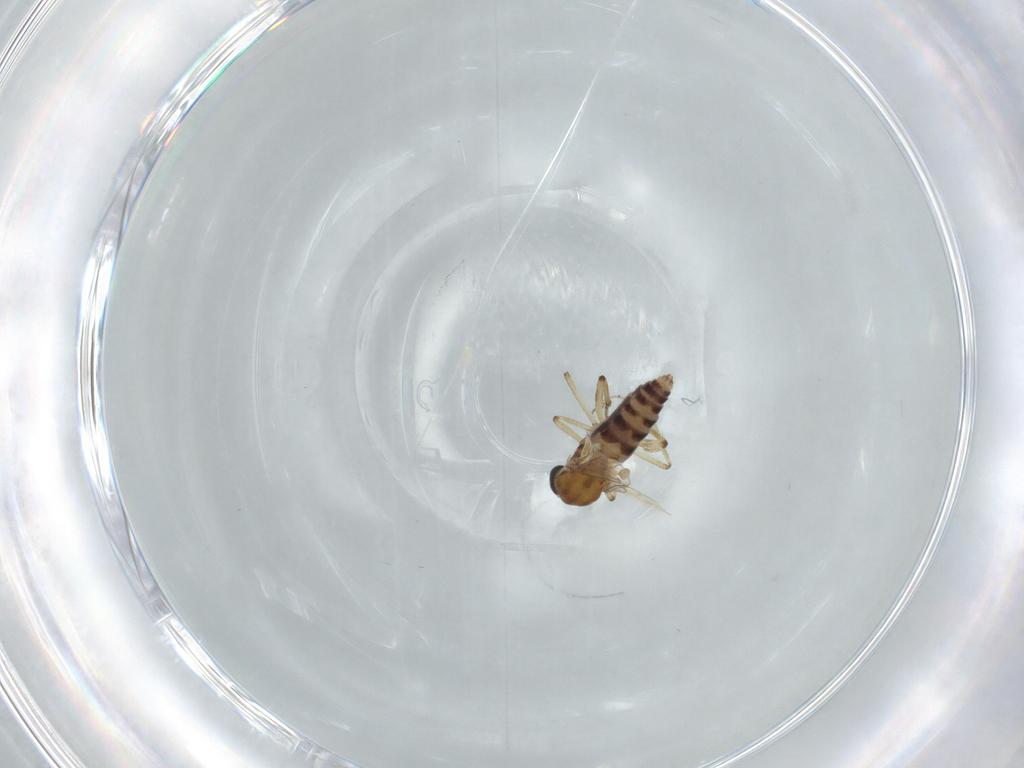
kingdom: Animalia
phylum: Arthropoda
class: Insecta
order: Diptera
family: Ceratopogonidae
